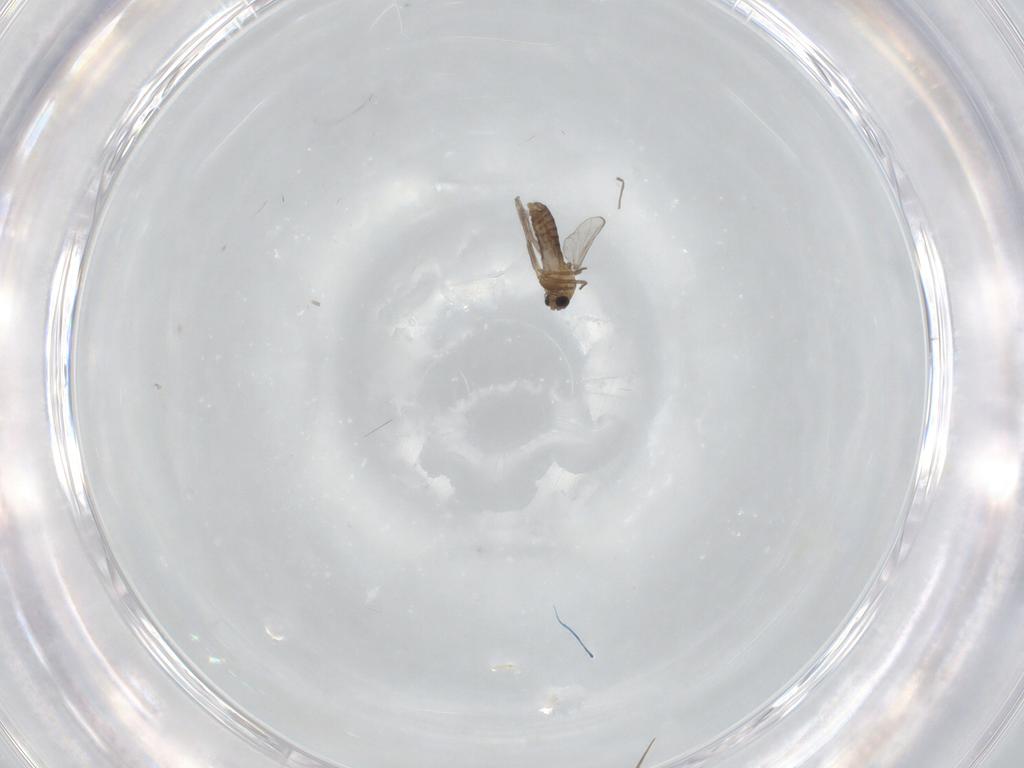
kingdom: Animalia
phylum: Arthropoda
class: Insecta
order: Diptera
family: Chironomidae
